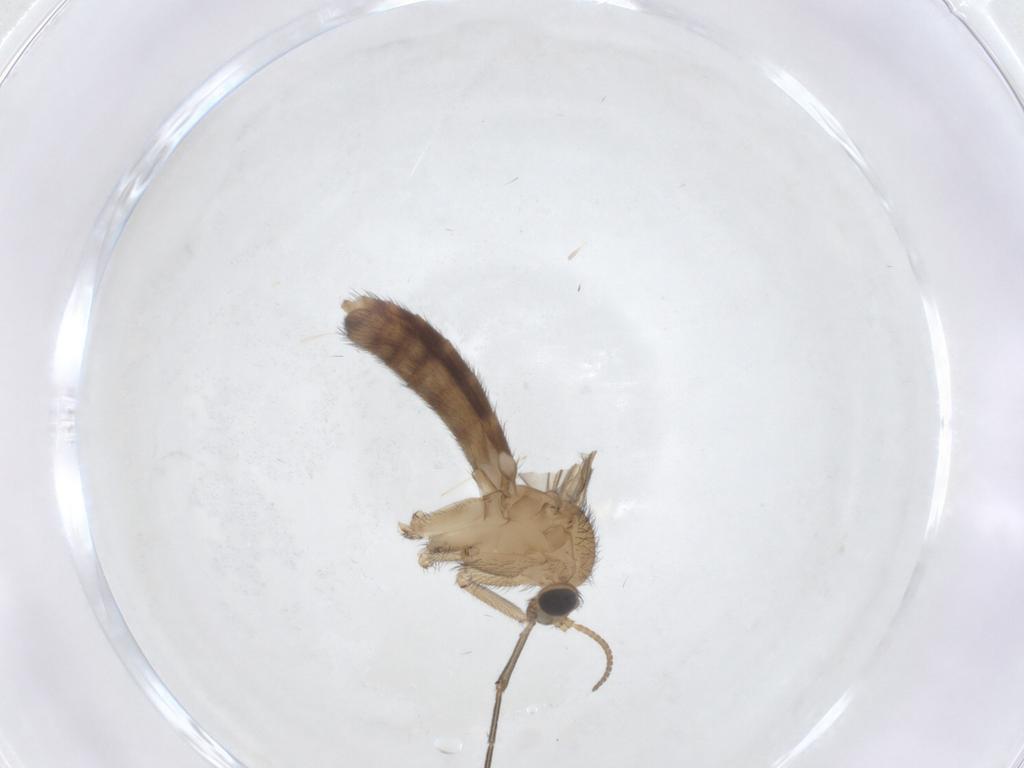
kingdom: Animalia
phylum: Arthropoda
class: Insecta
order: Diptera
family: Keroplatidae
